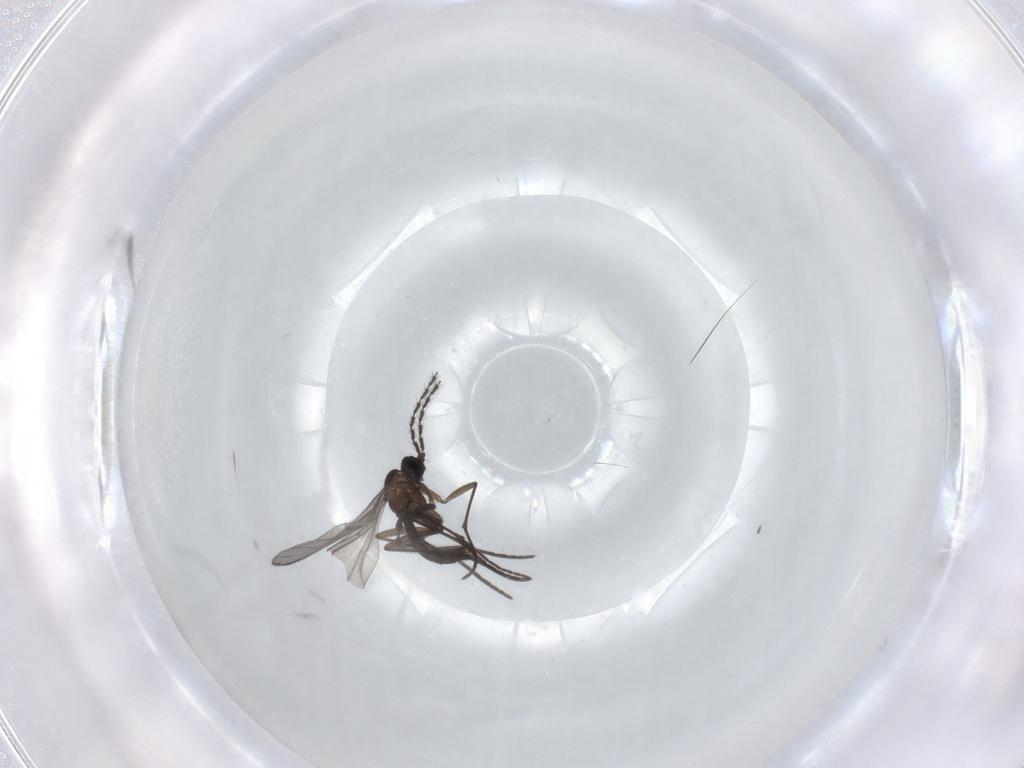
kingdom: Animalia
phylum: Arthropoda
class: Insecta
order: Diptera
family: Sciaridae
